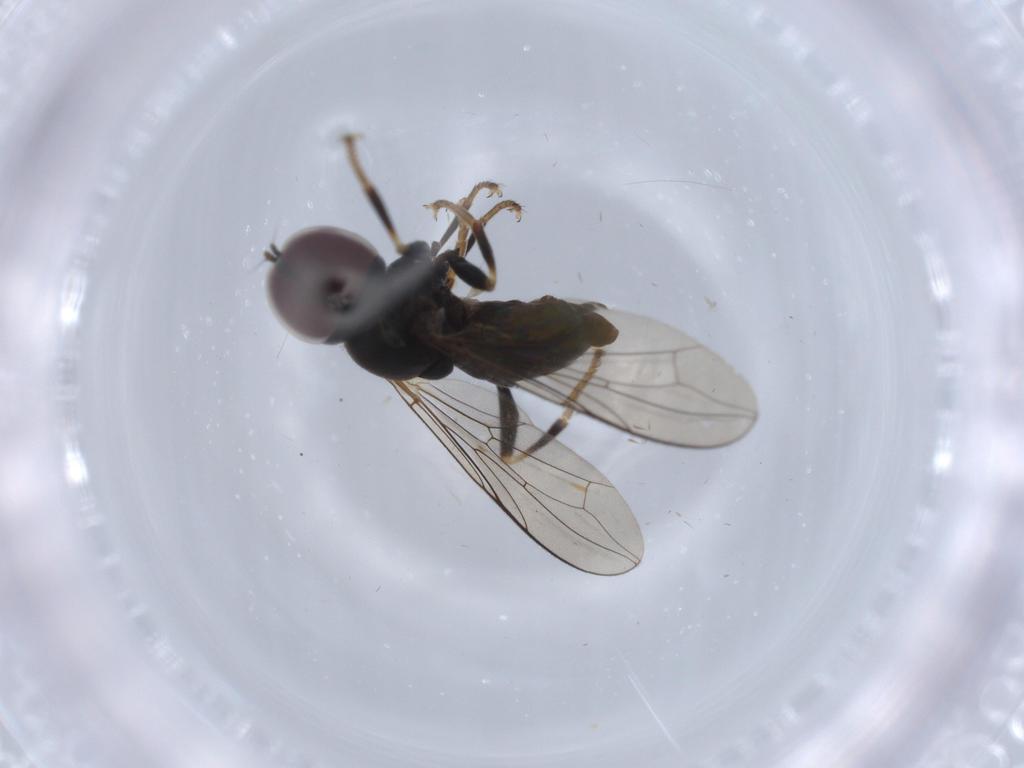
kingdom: Animalia
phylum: Arthropoda
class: Insecta
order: Diptera
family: Pipunculidae
